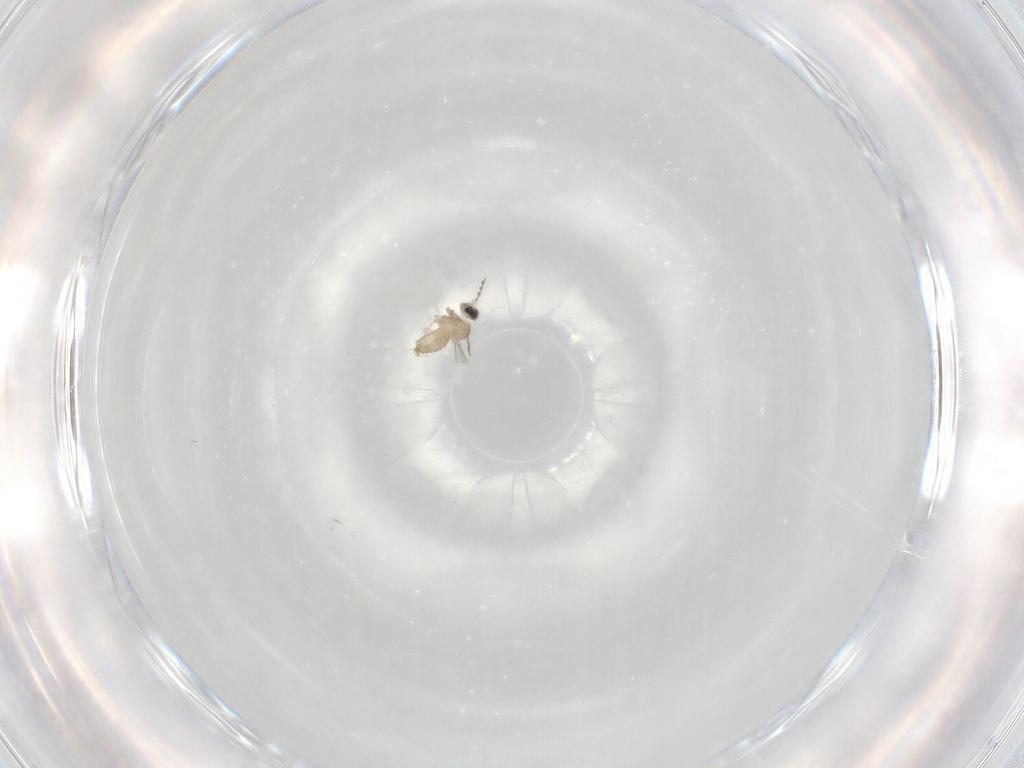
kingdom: Animalia
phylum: Arthropoda
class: Insecta
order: Diptera
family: Cecidomyiidae
